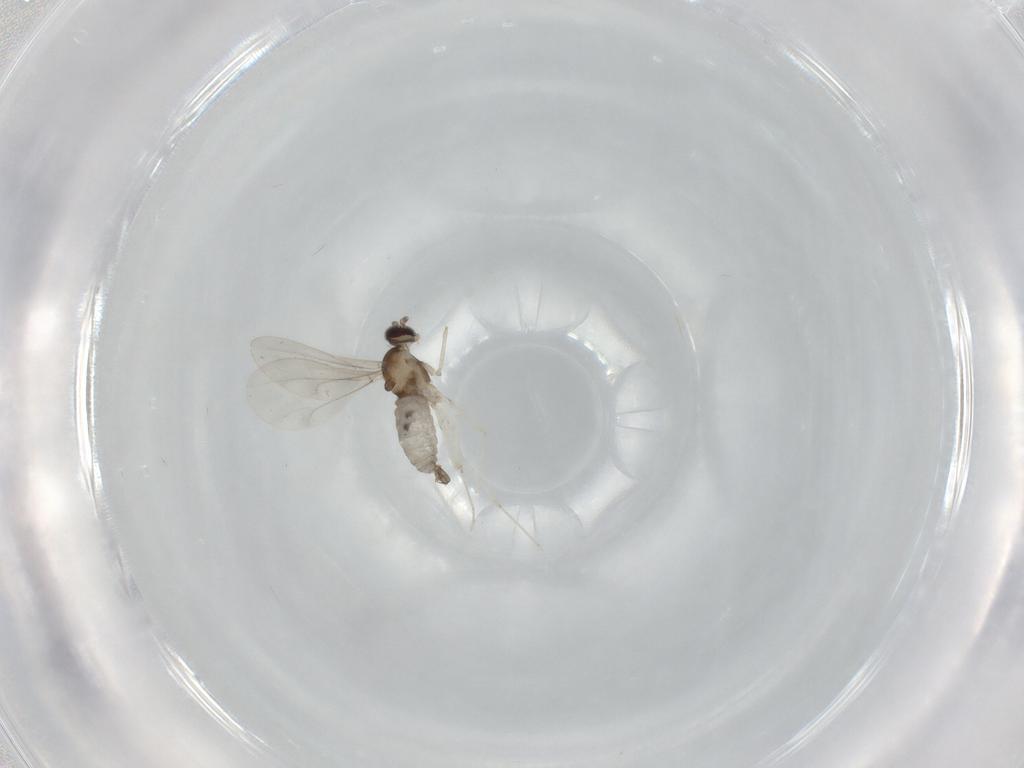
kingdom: Animalia
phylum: Arthropoda
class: Insecta
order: Diptera
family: Cecidomyiidae
